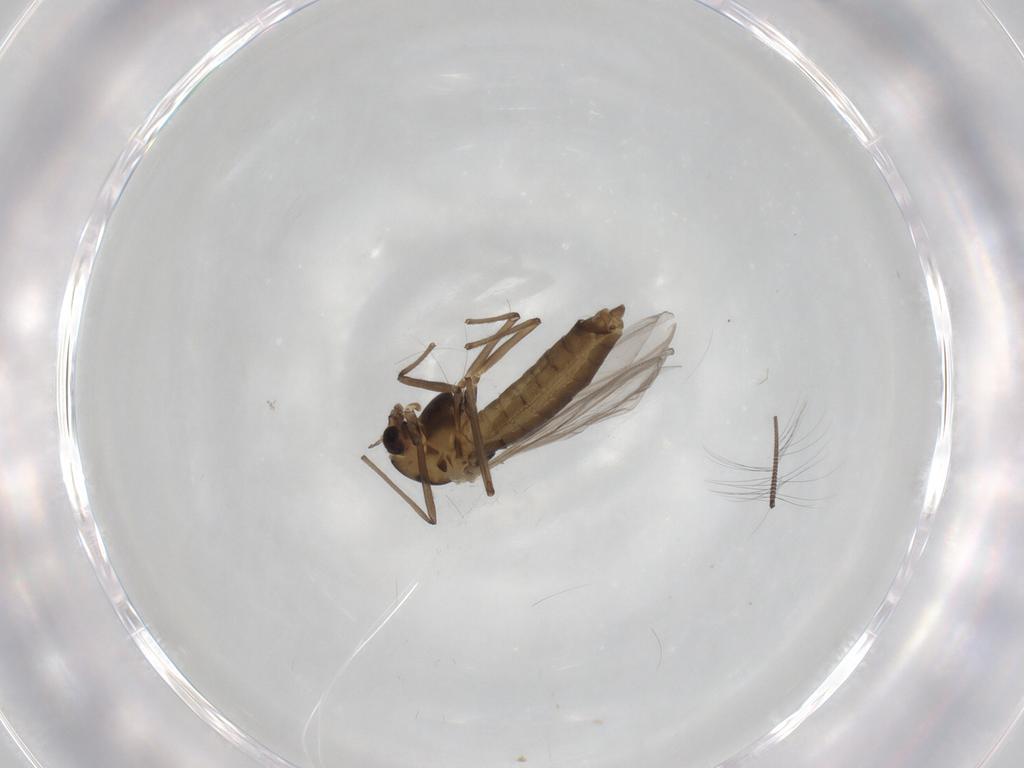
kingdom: Animalia
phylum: Arthropoda
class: Insecta
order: Diptera
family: Chironomidae
